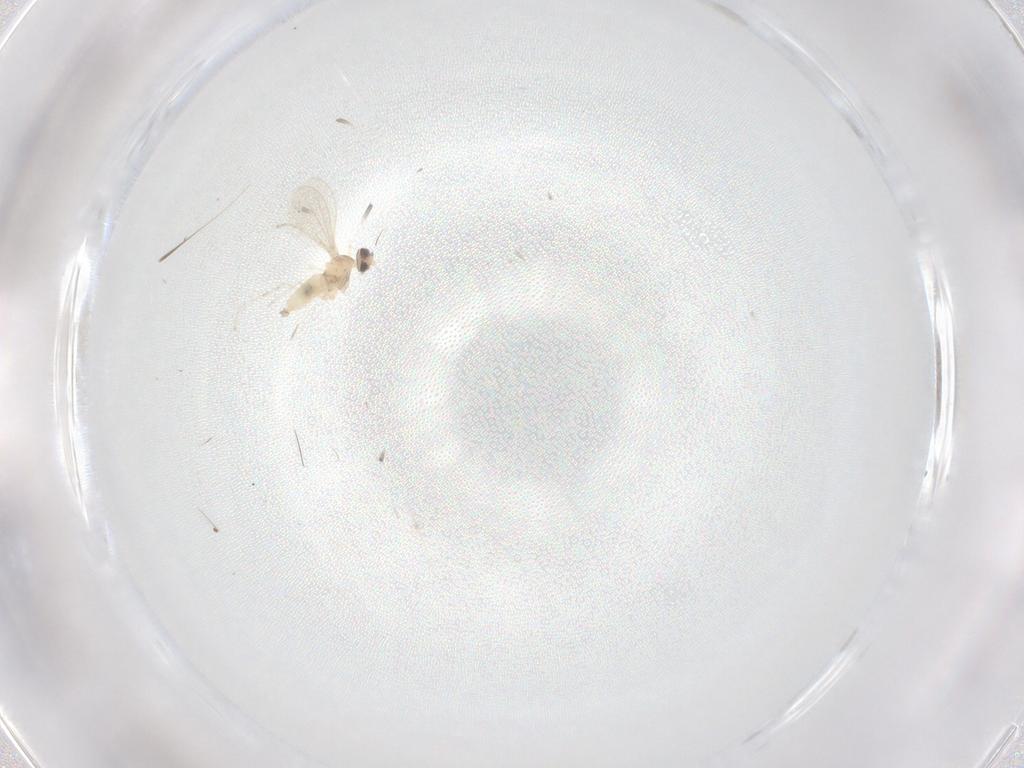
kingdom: Animalia
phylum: Arthropoda
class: Insecta
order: Diptera
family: Cecidomyiidae
